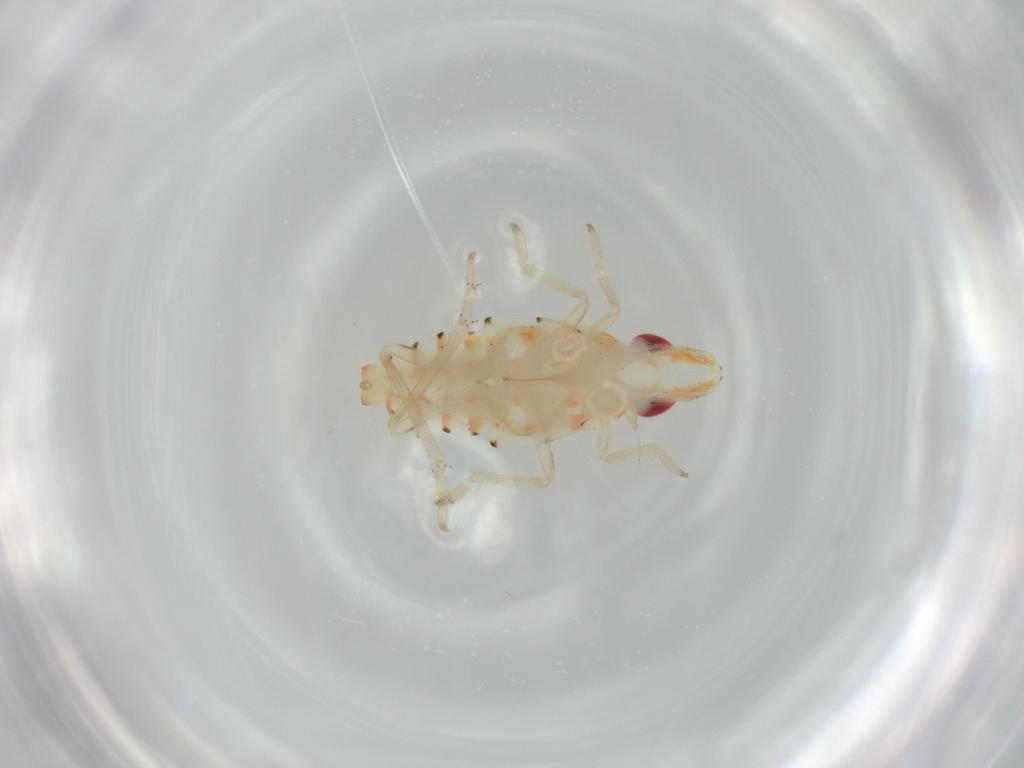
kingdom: Animalia
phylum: Arthropoda
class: Insecta
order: Hemiptera
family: Tropiduchidae
